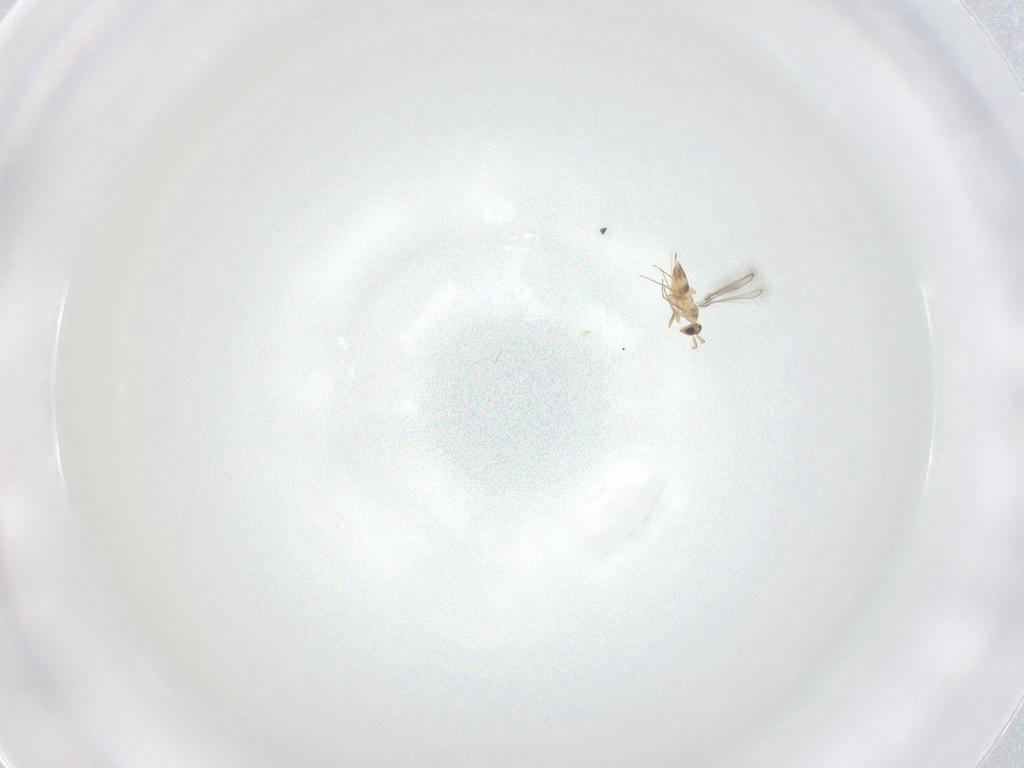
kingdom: Animalia
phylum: Arthropoda
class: Insecta
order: Hymenoptera
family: Mymaridae
